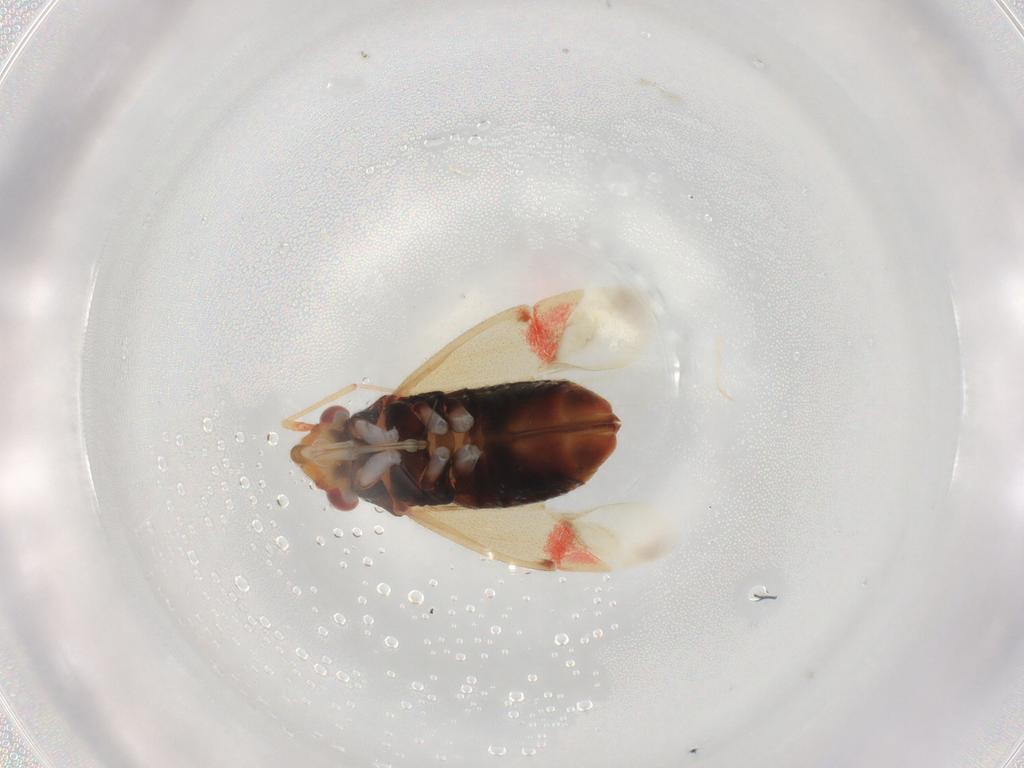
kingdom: Animalia
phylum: Arthropoda
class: Insecta
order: Hemiptera
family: Miridae
